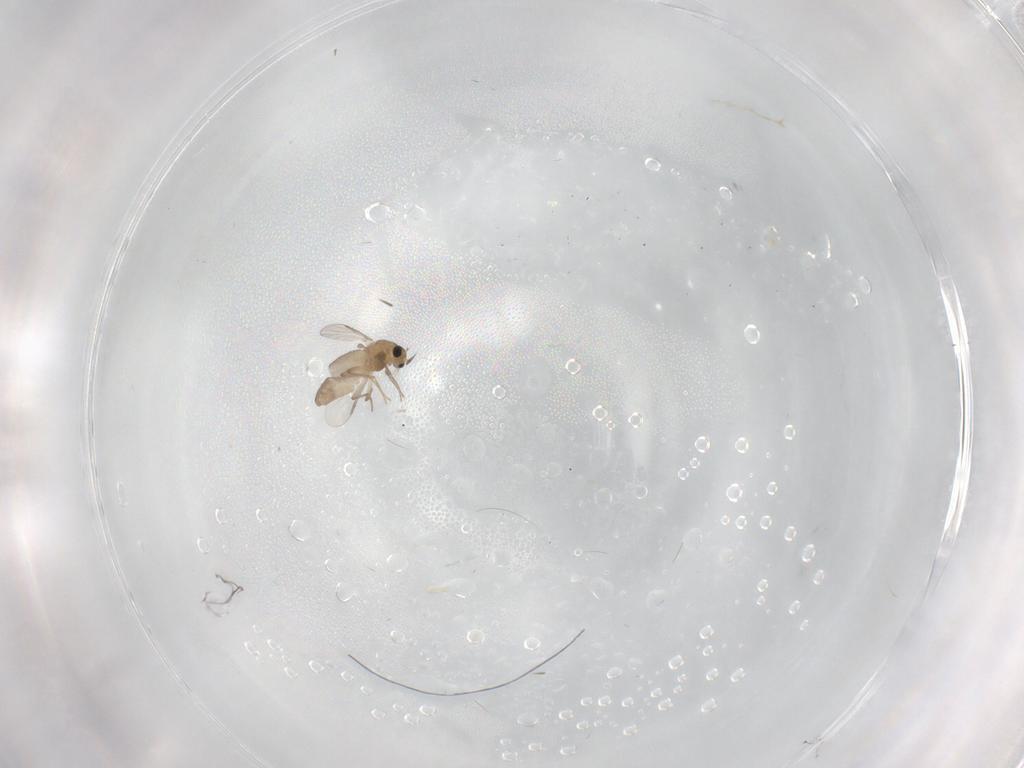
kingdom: Animalia
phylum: Arthropoda
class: Insecta
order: Diptera
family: Chironomidae
